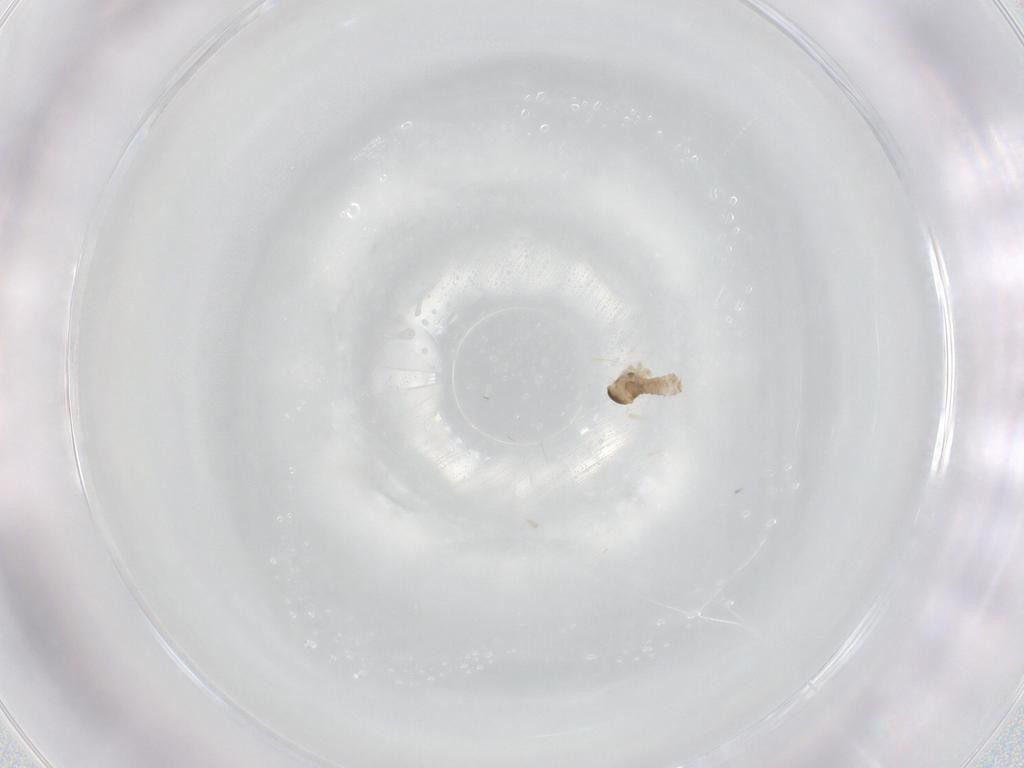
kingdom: Animalia
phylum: Arthropoda
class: Insecta
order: Diptera
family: Cecidomyiidae
